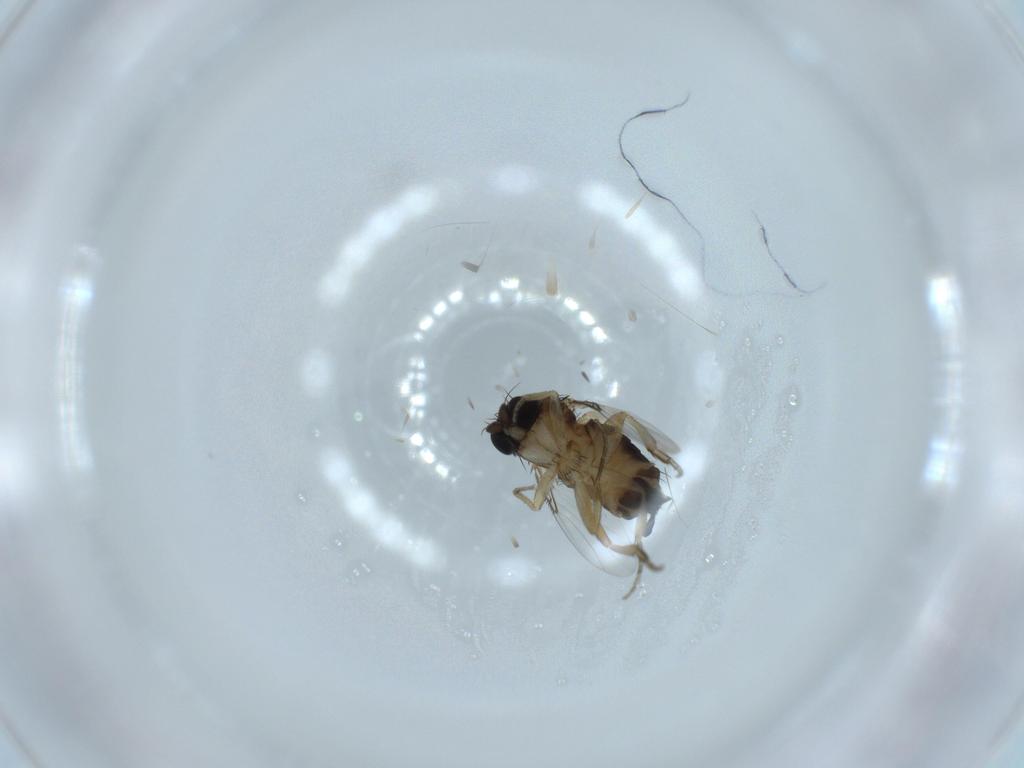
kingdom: Animalia
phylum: Arthropoda
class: Insecta
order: Diptera
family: Phoridae
